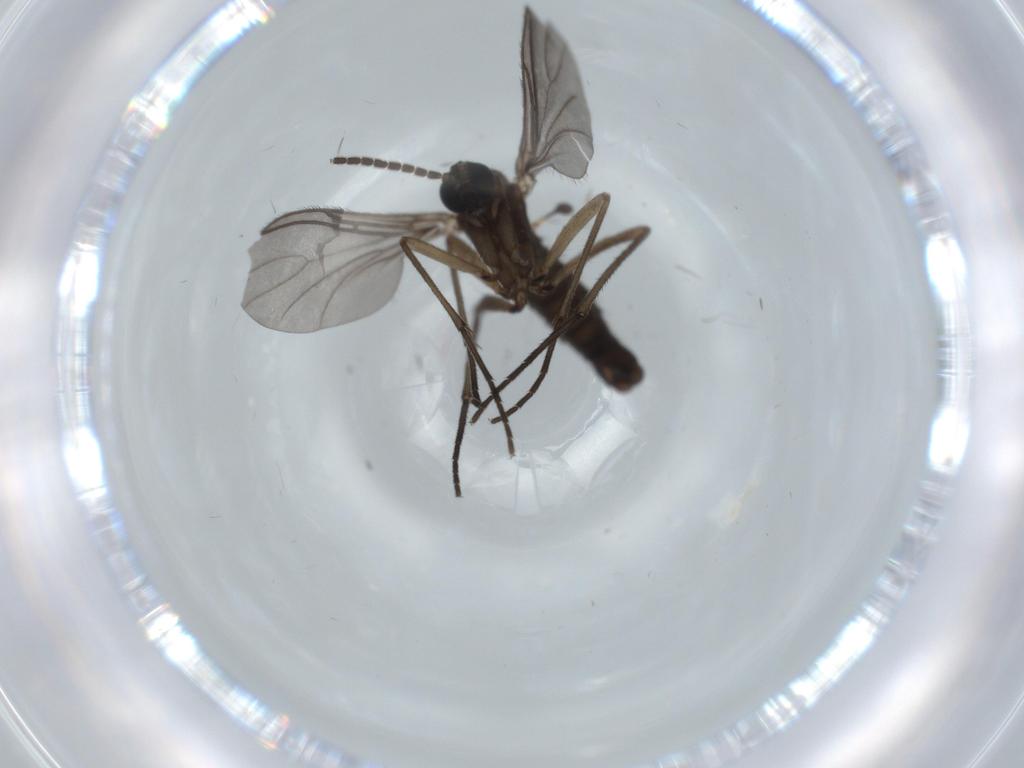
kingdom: Animalia
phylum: Arthropoda
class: Insecta
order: Diptera
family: Sciaridae
